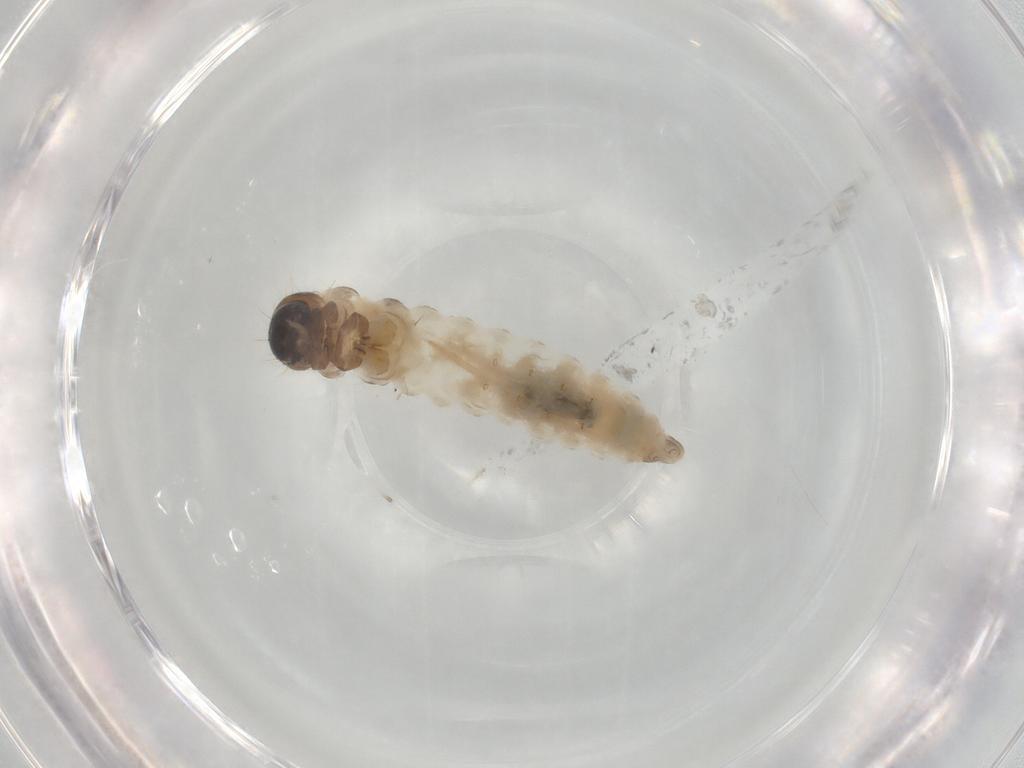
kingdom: Animalia
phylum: Arthropoda
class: Insecta
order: Lepidoptera
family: Psychidae
